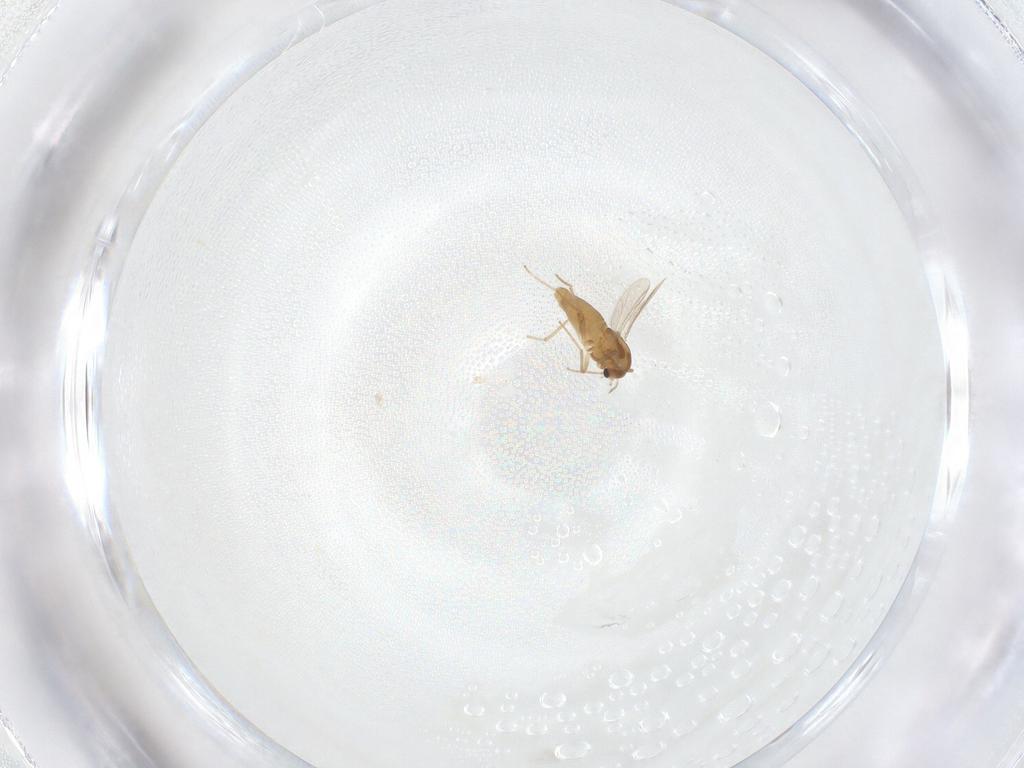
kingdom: Animalia
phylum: Arthropoda
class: Insecta
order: Diptera
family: Chironomidae
